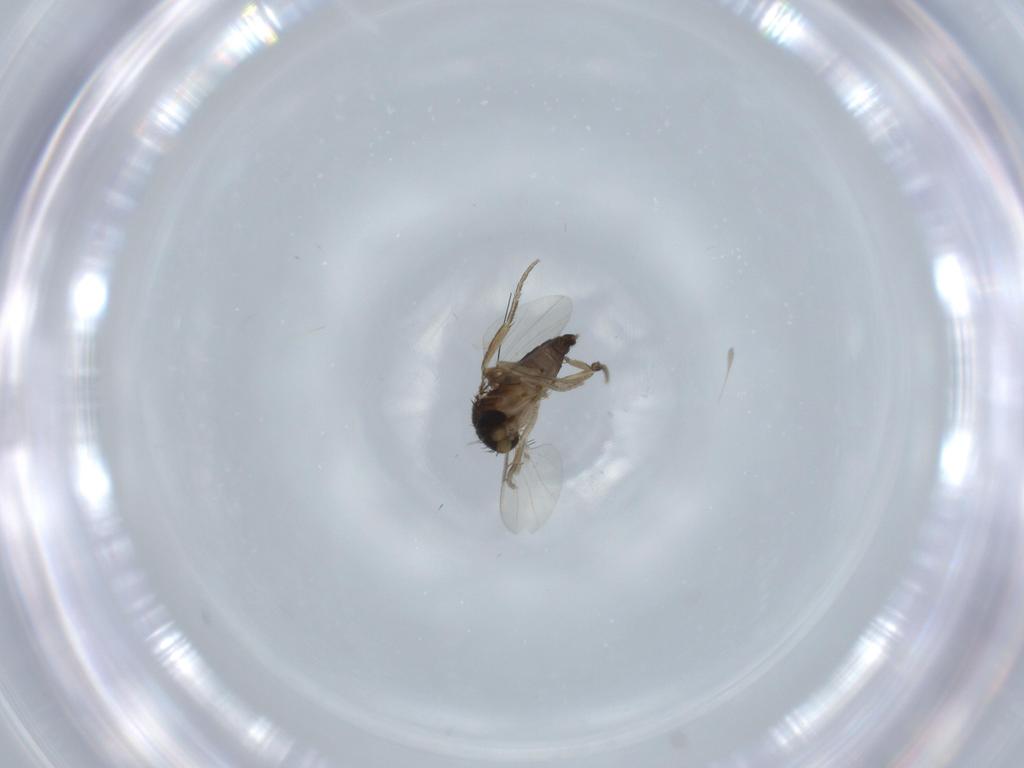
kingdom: Animalia
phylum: Arthropoda
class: Insecta
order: Diptera
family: Phoridae
